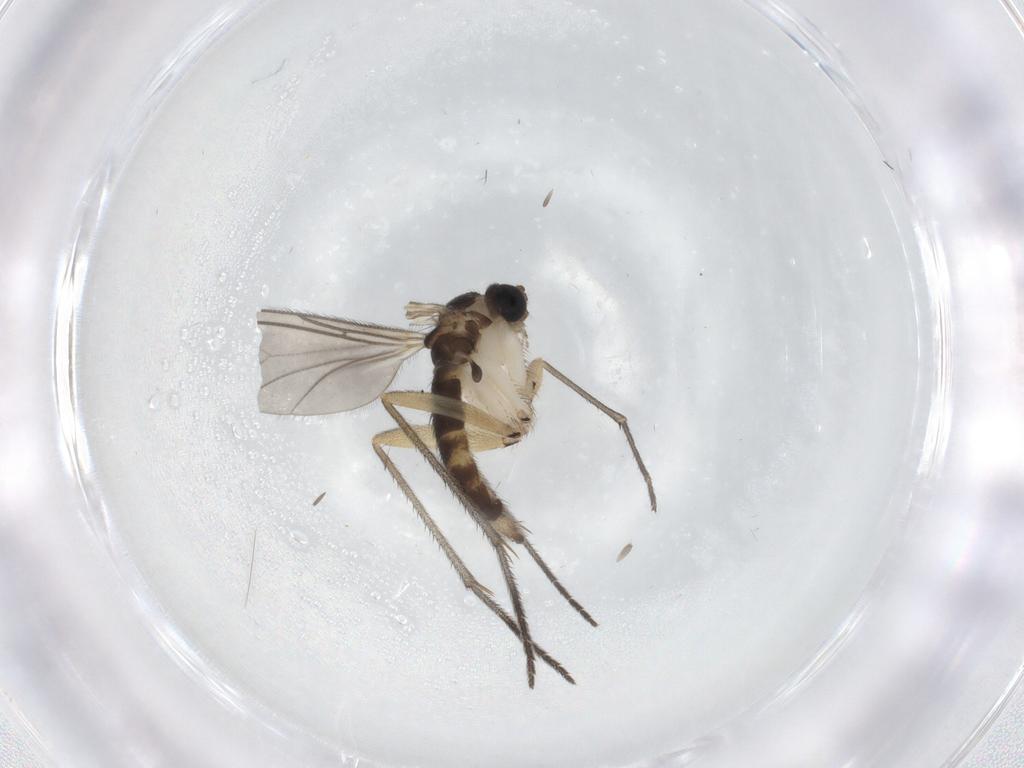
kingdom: Animalia
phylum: Arthropoda
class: Insecta
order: Diptera
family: Sciaridae
